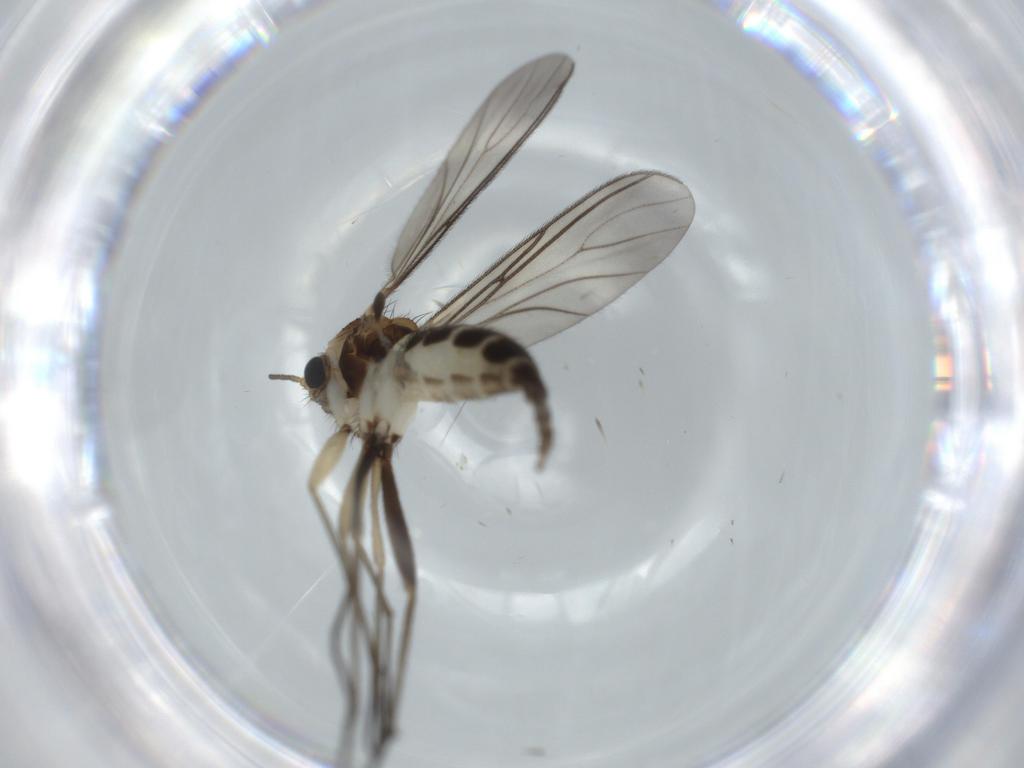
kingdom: Animalia
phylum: Arthropoda
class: Insecta
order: Diptera
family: Sciaridae
